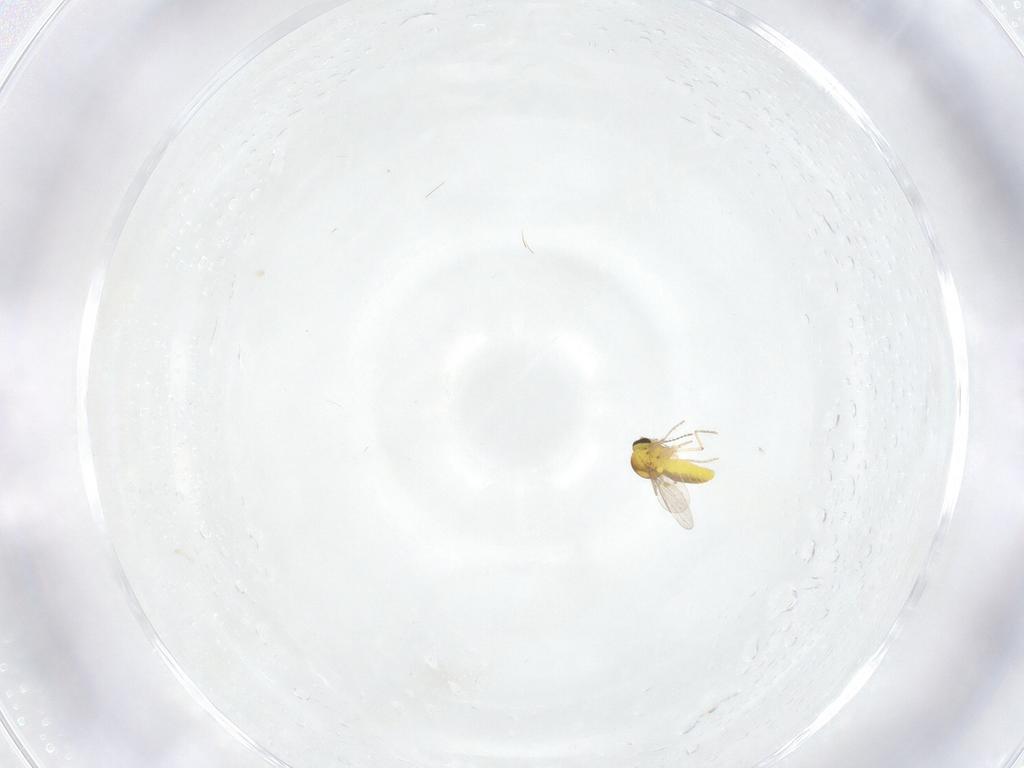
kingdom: Animalia
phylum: Arthropoda
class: Insecta
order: Diptera
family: Ceratopogonidae
